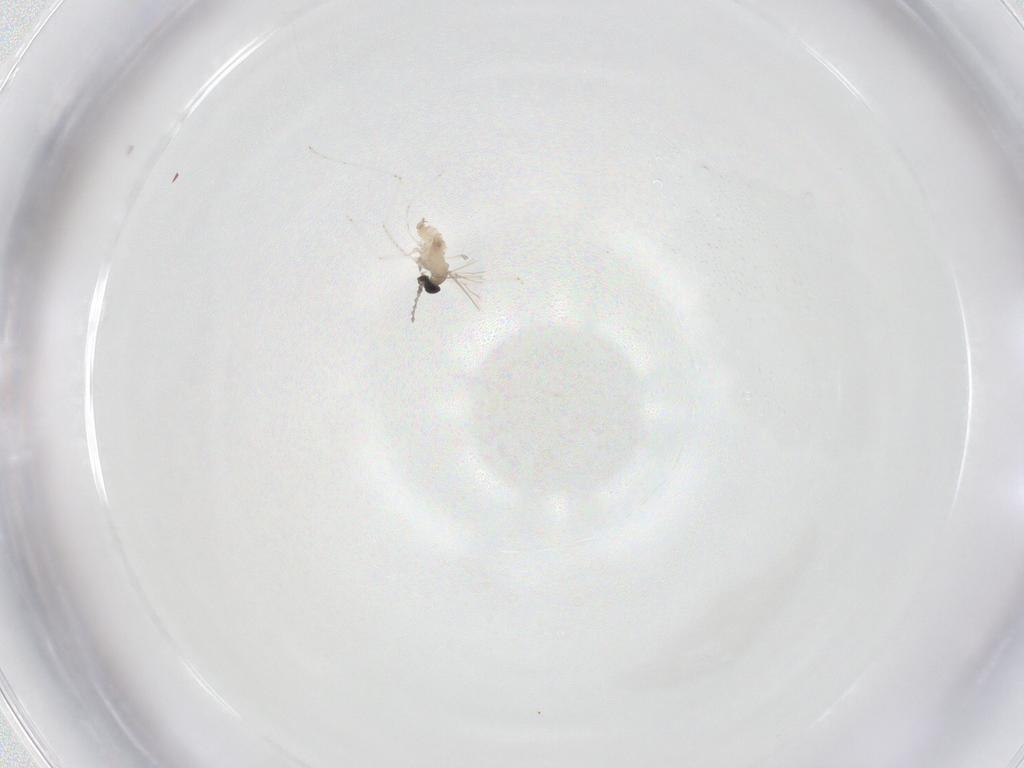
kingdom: Animalia
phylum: Arthropoda
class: Insecta
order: Diptera
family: Cecidomyiidae
